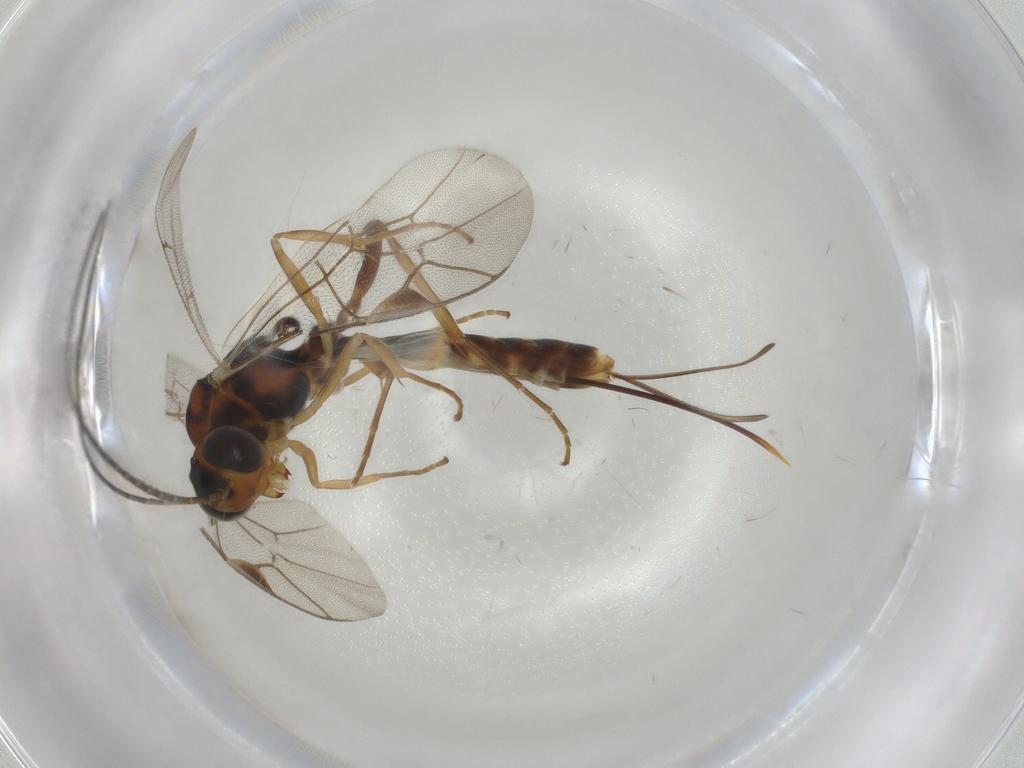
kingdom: Animalia
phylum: Arthropoda
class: Insecta
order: Hymenoptera
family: Ichneumonidae
